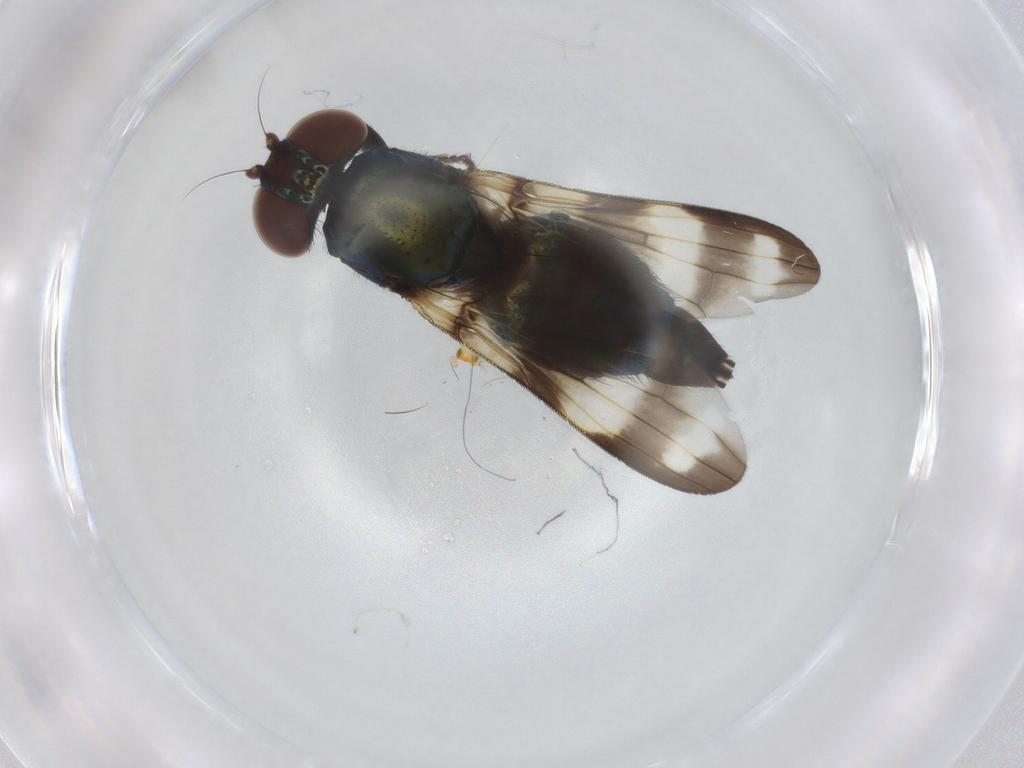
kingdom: Animalia
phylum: Arthropoda
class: Insecta
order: Diptera
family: Ulidiidae
